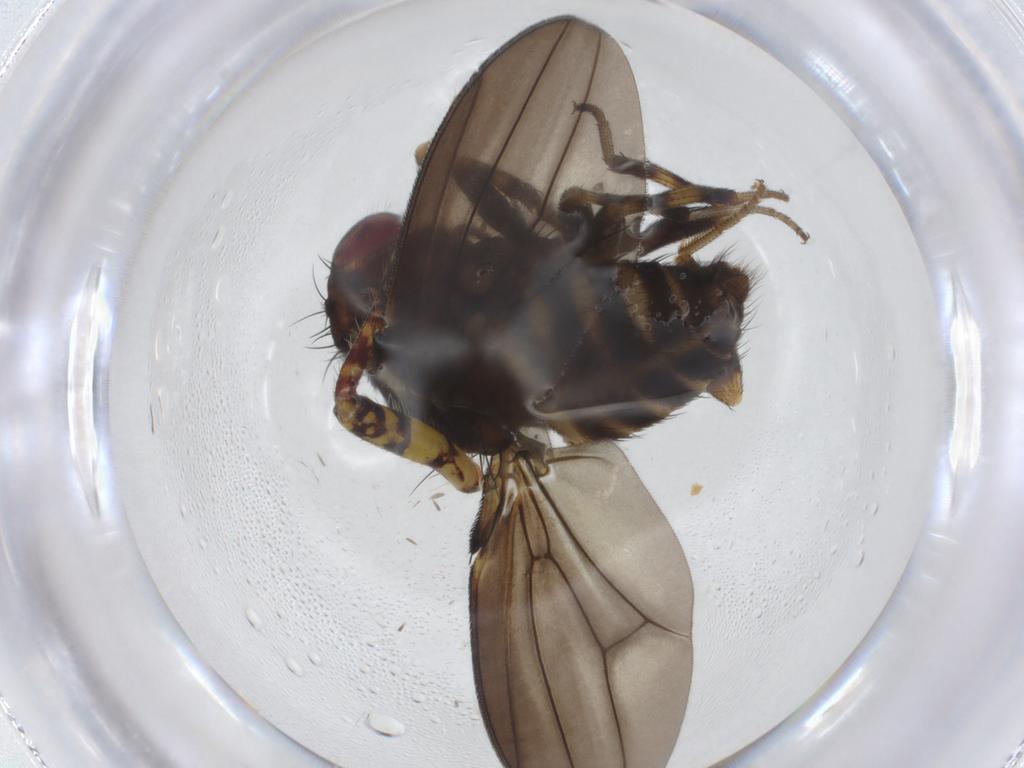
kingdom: Animalia
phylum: Arthropoda
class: Insecta
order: Diptera
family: Drosophilidae
